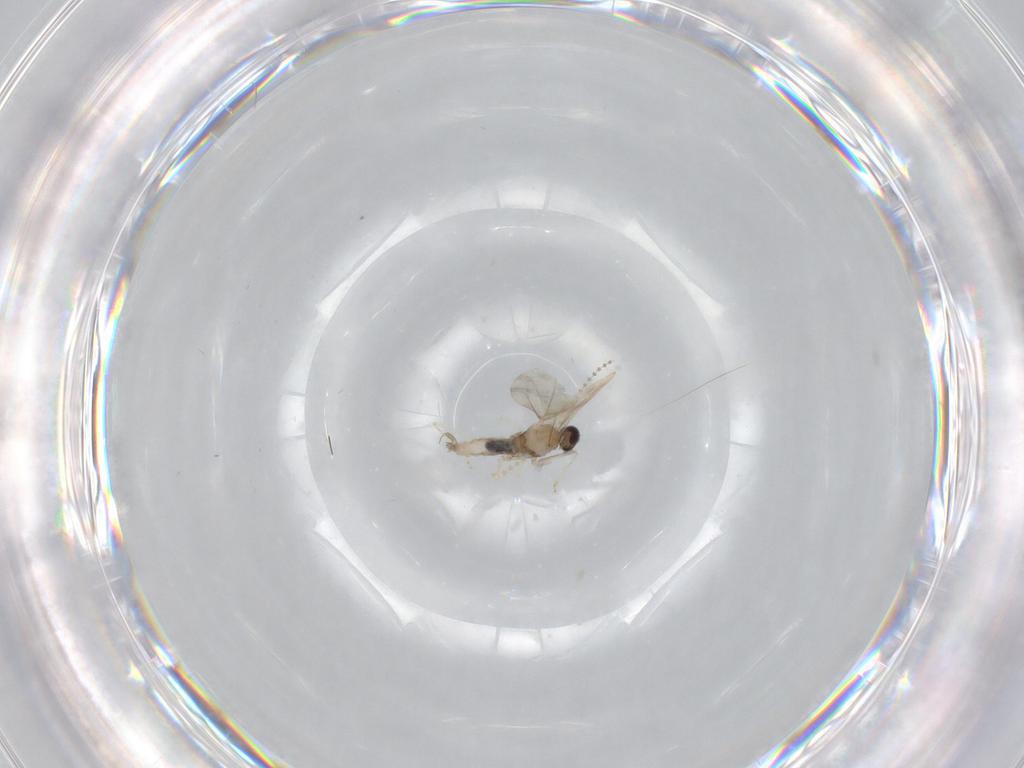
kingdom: Animalia
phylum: Arthropoda
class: Insecta
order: Diptera
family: Cecidomyiidae
